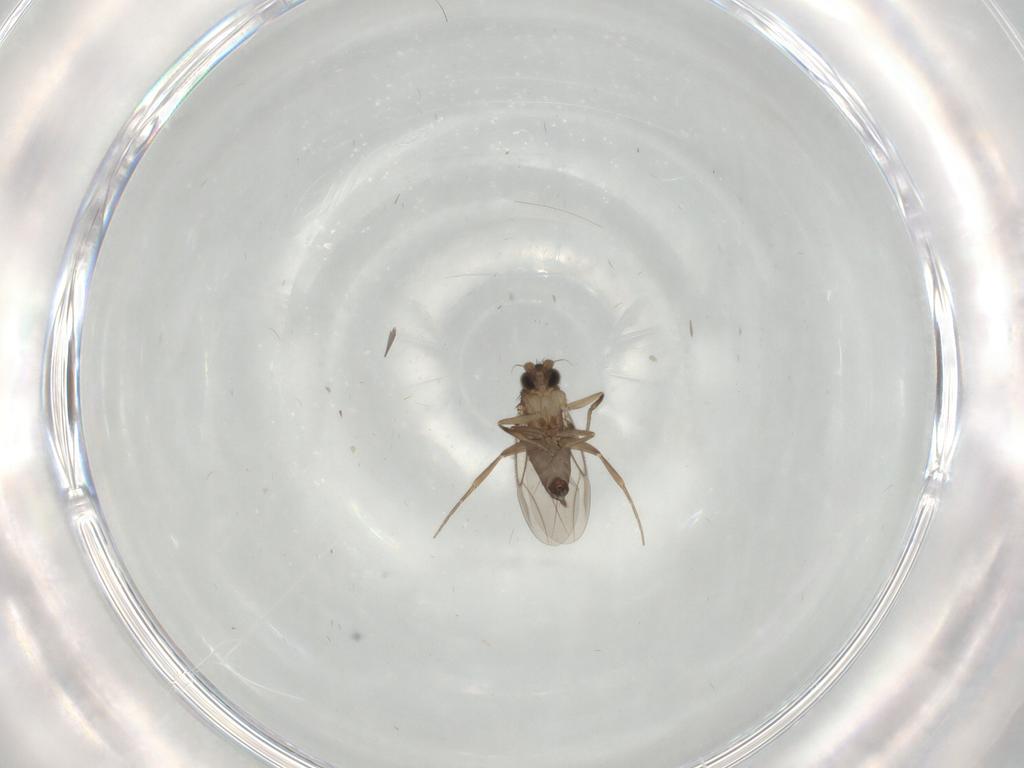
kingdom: Animalia
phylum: Arthropoda
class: Insecta
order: Diptera
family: Phoridae
